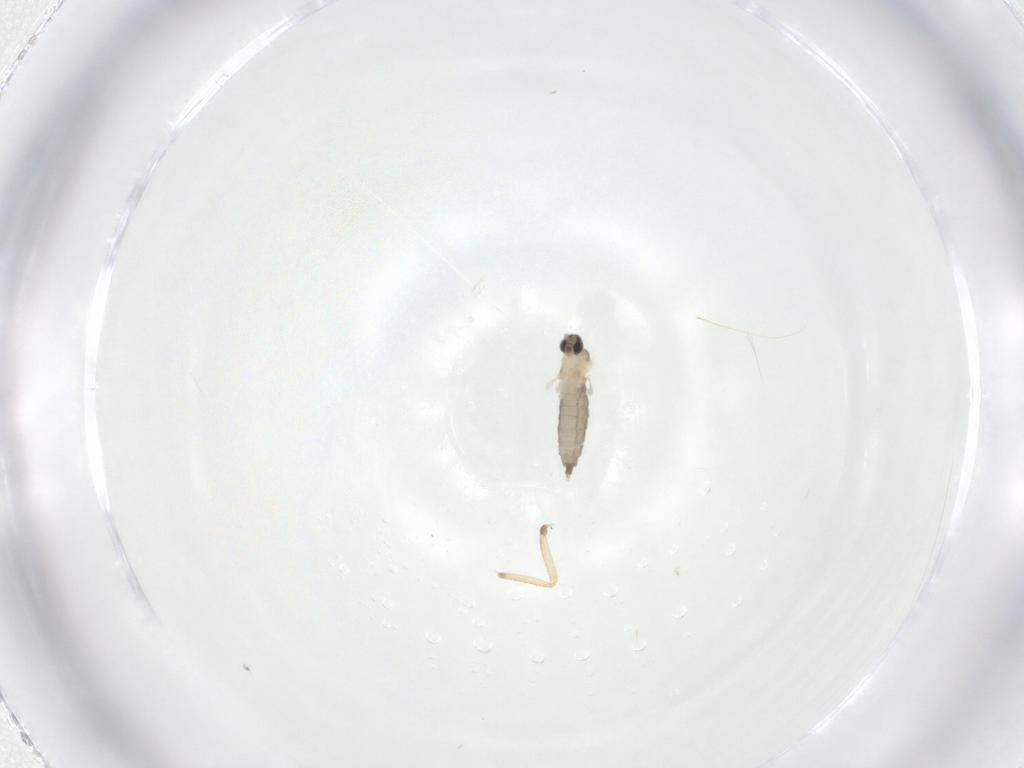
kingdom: Animalia
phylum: Arthropoda
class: Insecta
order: Diptera
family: Ceratopogonidae
